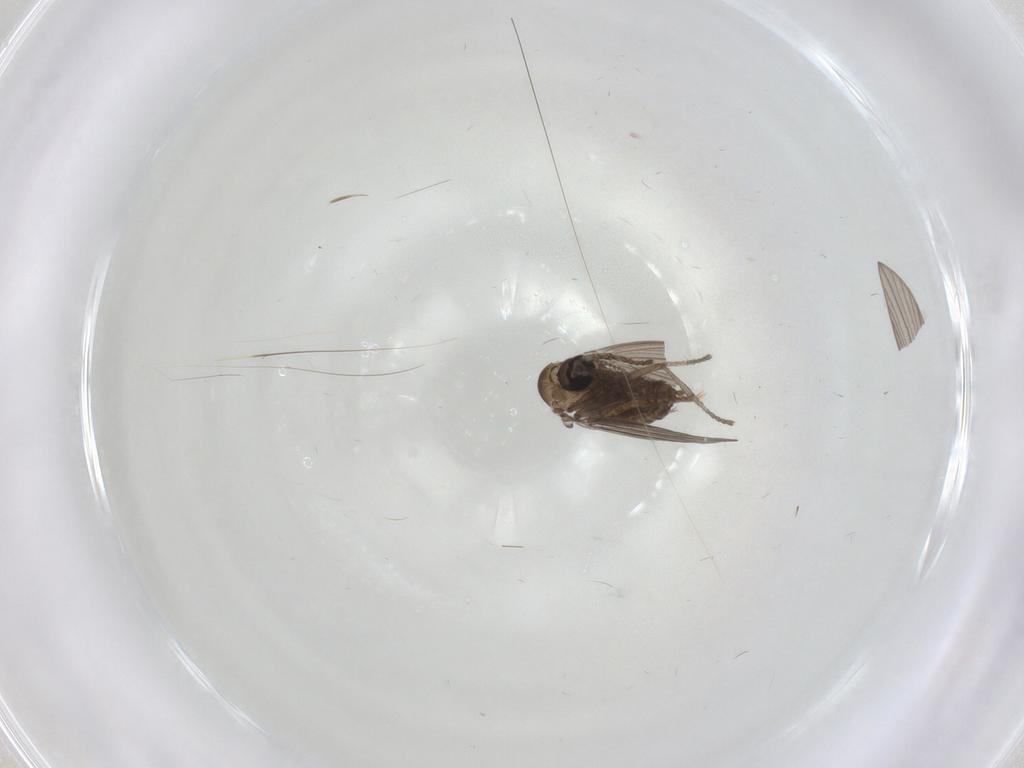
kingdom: Animalia
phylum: Arthropoda
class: Insecta
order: Diptera
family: Psychodidae
